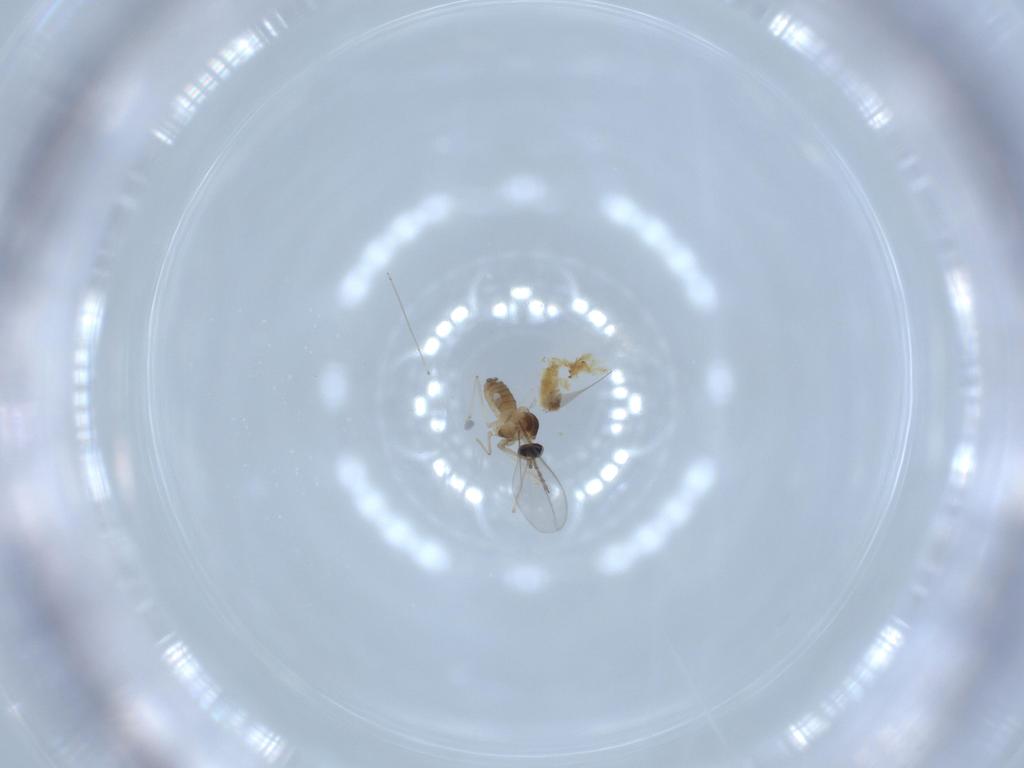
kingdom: Animalia
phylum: Arthropoda
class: Insecta
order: Diptera
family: Cecidomyiidae
